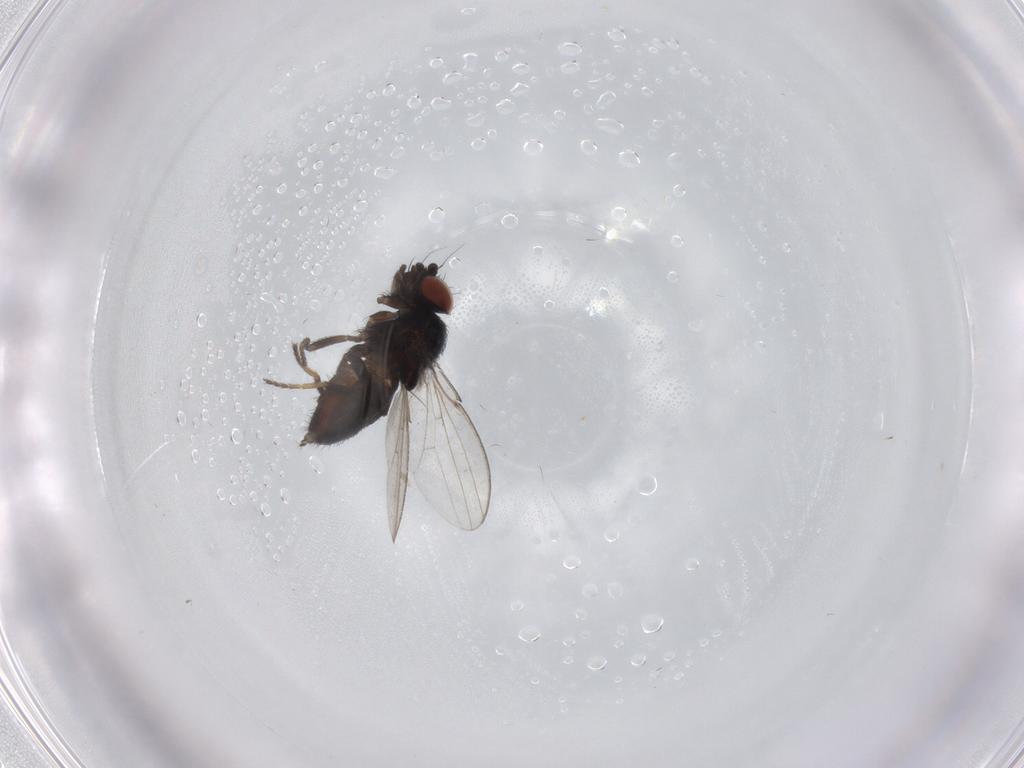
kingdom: Animalia
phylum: Arthropoda
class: Insecta
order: Diptera
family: Milichiidae
